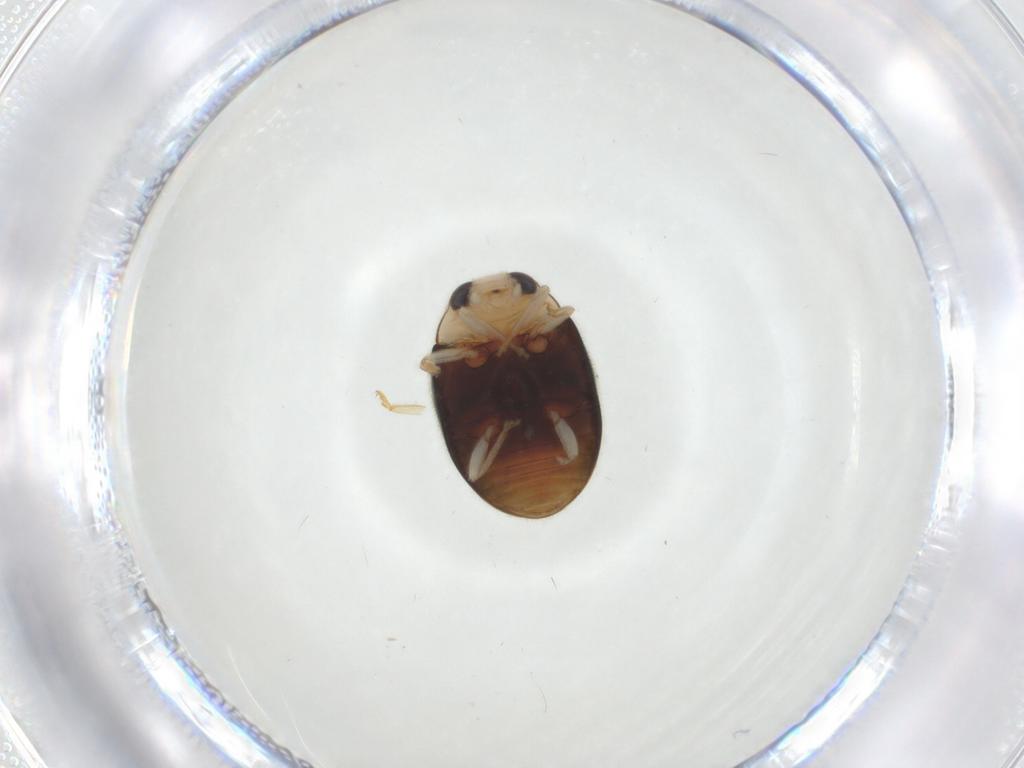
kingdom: Animalia
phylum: Arthropoda
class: Insecta
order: Coleoptera
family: Coccinellidae
